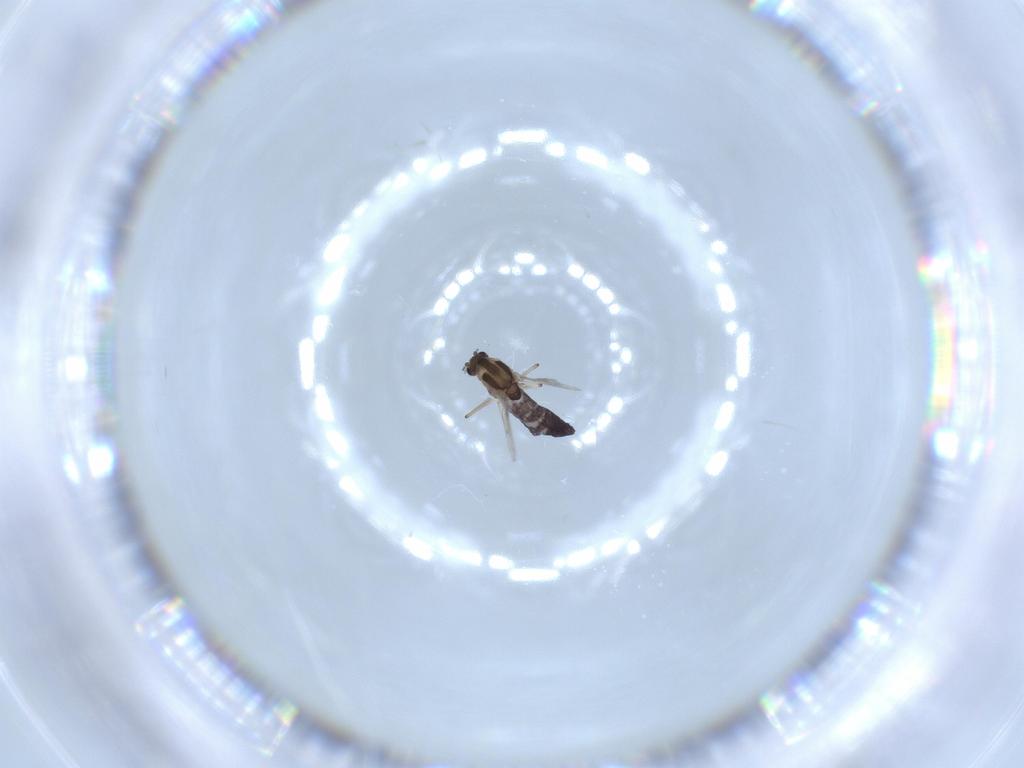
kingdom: Animalia
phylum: Arthropoda
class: Insecta
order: Diptera
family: Chironomidae
